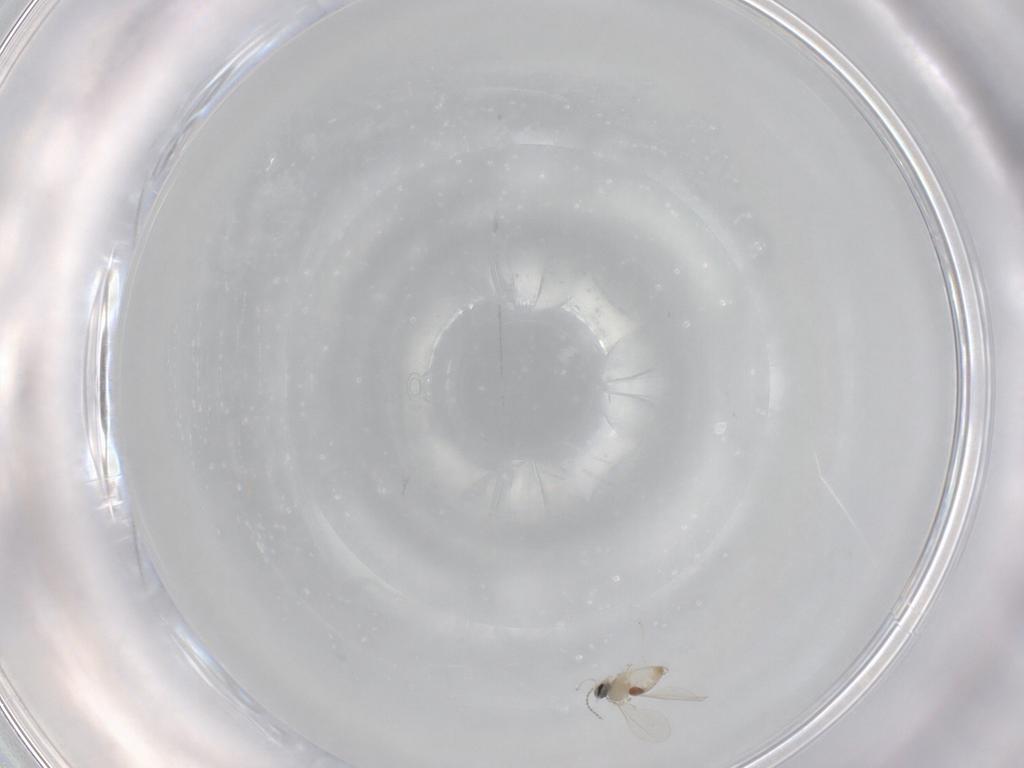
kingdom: Animalia
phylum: Arthropoda
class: Insecta
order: Diptera
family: Cecidomyiidae
